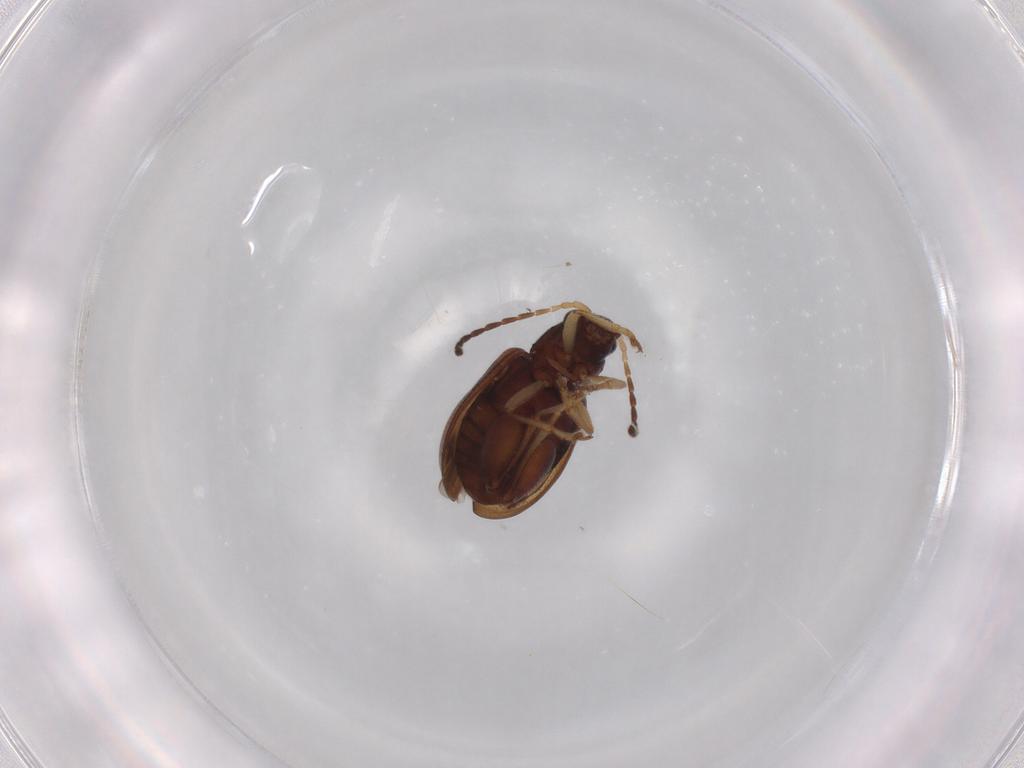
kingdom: Animalia
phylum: Arthropoda
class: Insecta
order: Coleoptera
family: Chrysomelidae
